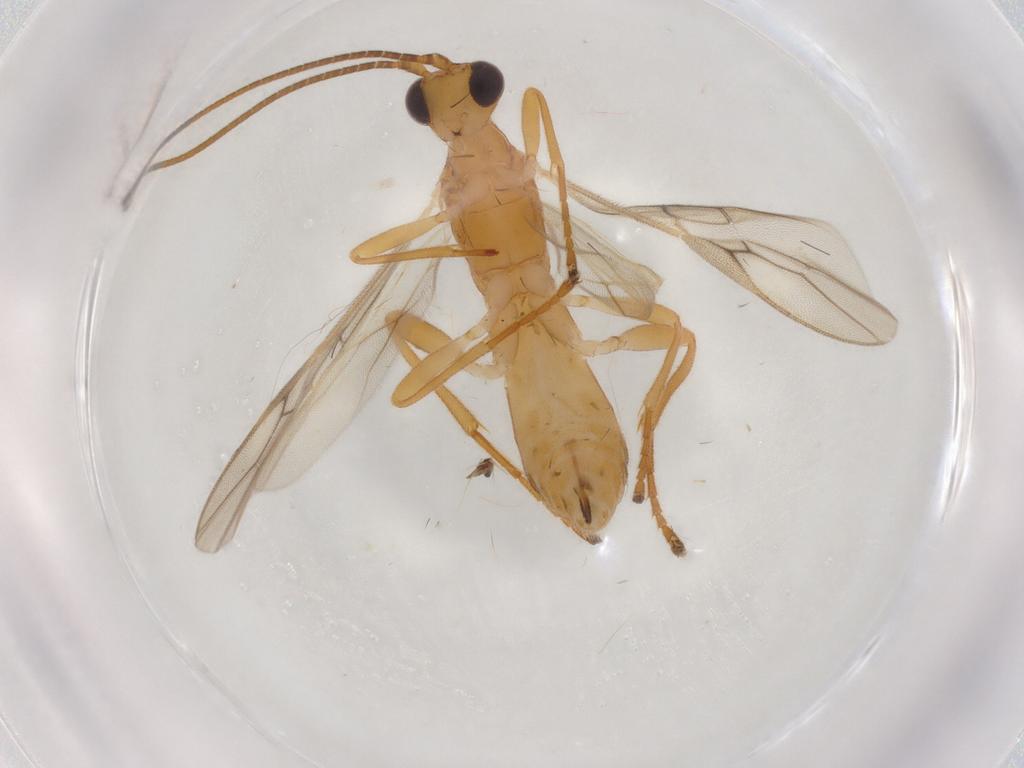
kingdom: Animalia
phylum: Arthropoda
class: Insecta
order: Hymenoptera
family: Braconidae
